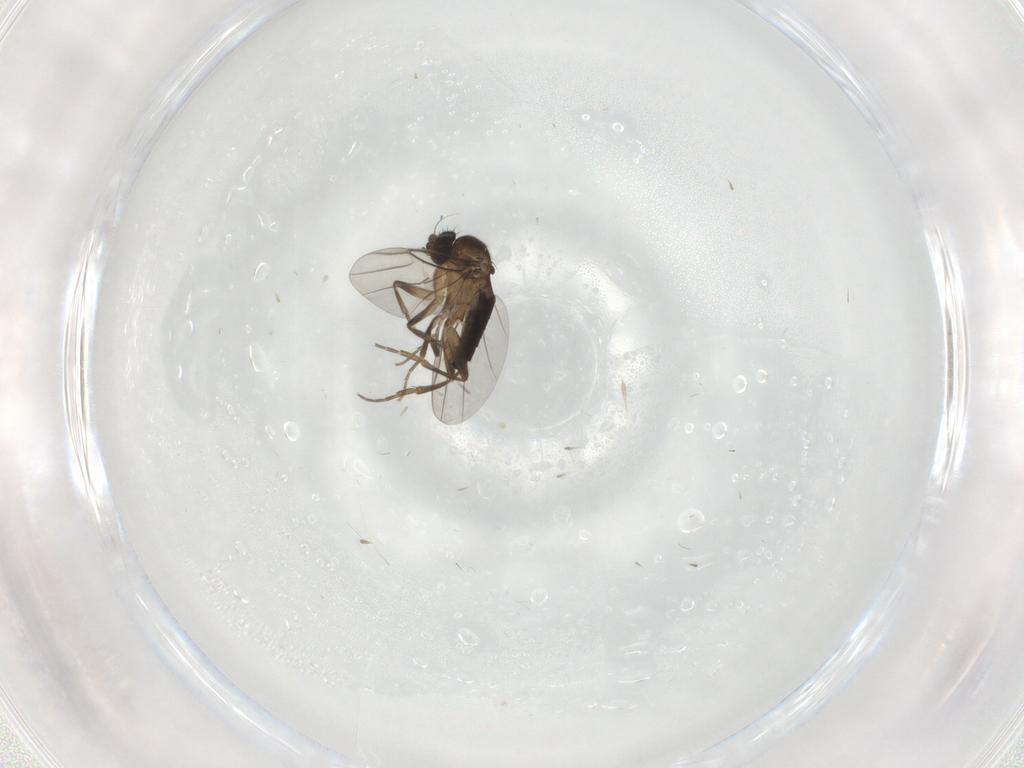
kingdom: Animalia
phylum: Arthropoda
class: Insecta
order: Diptera
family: Phoridae
